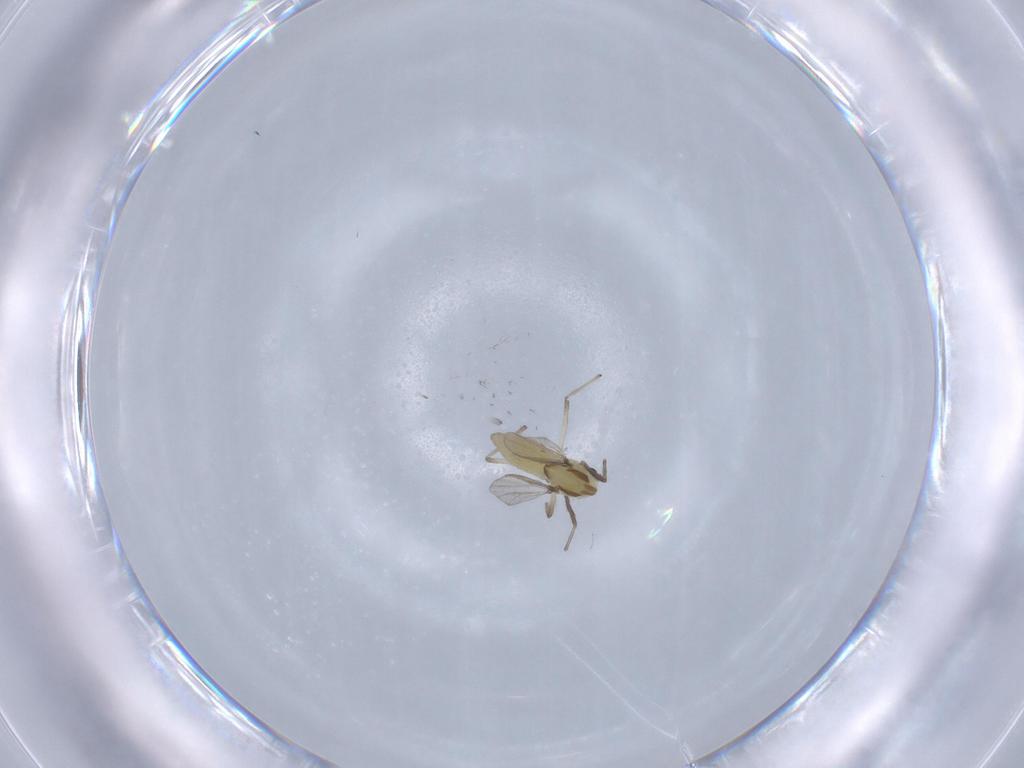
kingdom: Animalia
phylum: Arthropoda
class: Insecta
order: Diptera
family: Chironomidae
